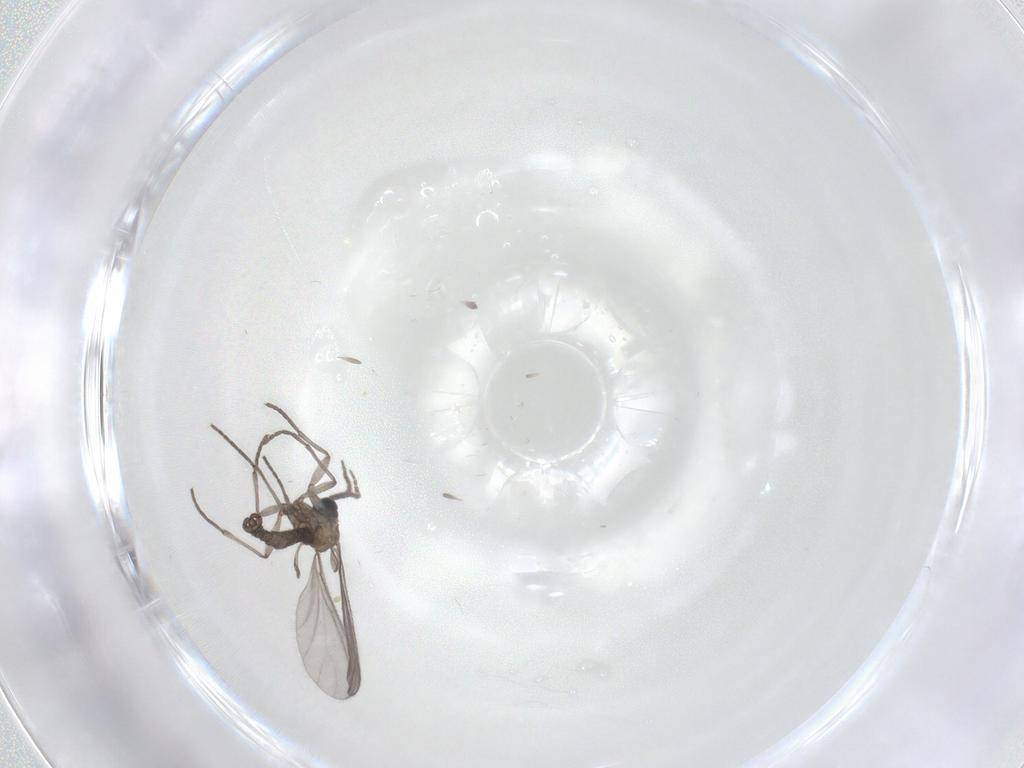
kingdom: Animalia
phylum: Arthropoda
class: Insecta
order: Diptera
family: Sciaridae
